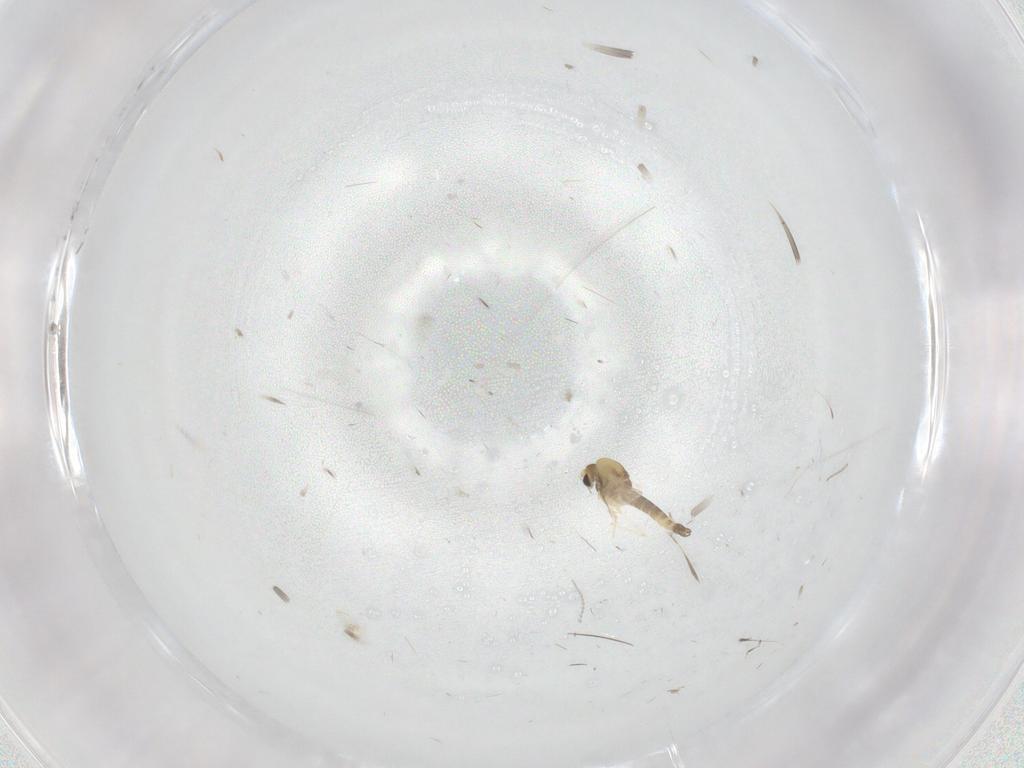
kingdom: Animalia
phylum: Arthropoda
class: Insecta
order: Diptera
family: Chironomidae
